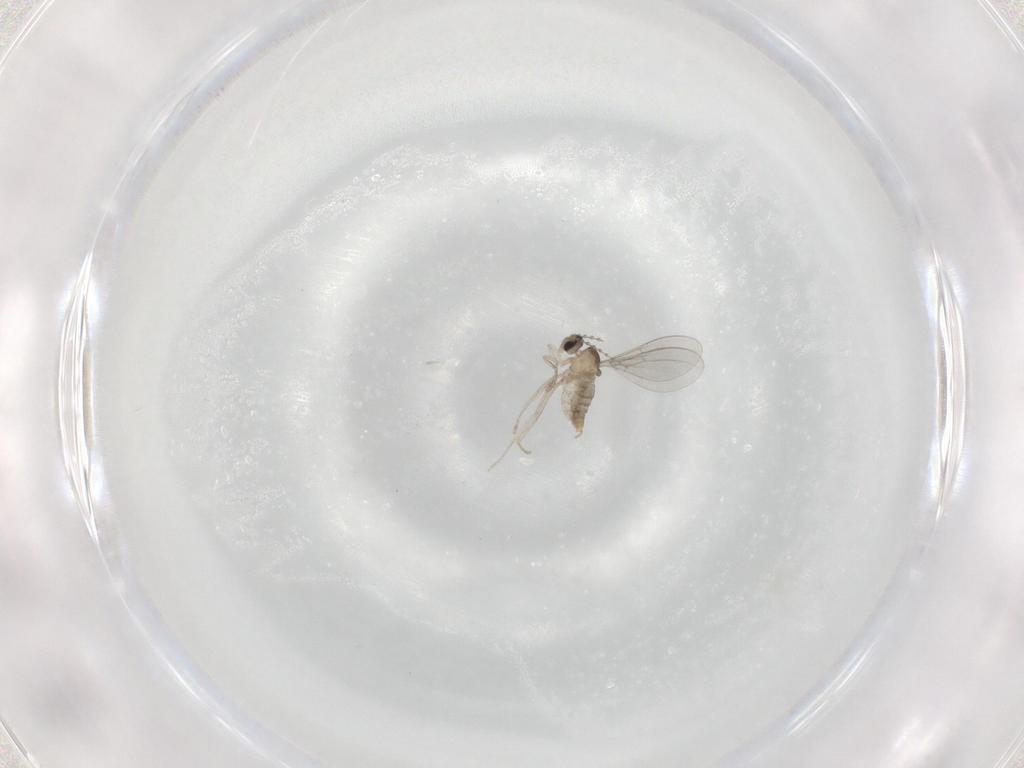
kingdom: Animalia
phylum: Arthropoda
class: Insecta
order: Diptera
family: Cecidomyiidae
